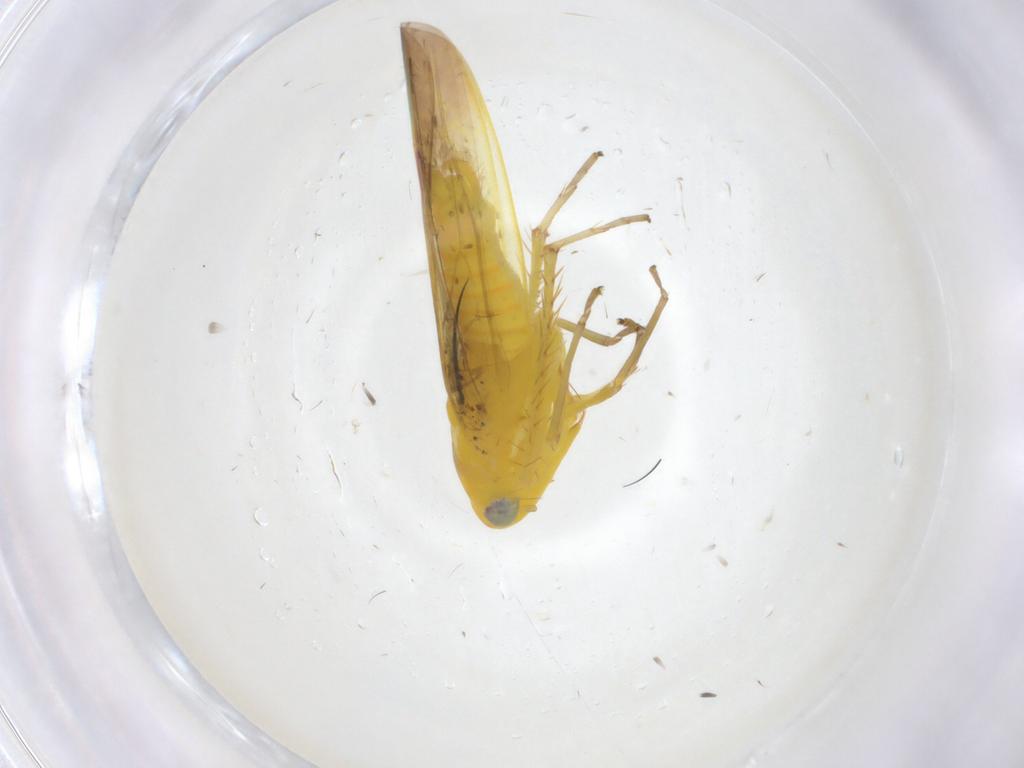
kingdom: Animalia
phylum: Arthropoda
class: Insecta
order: Hemiptera
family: Cicadellidae
